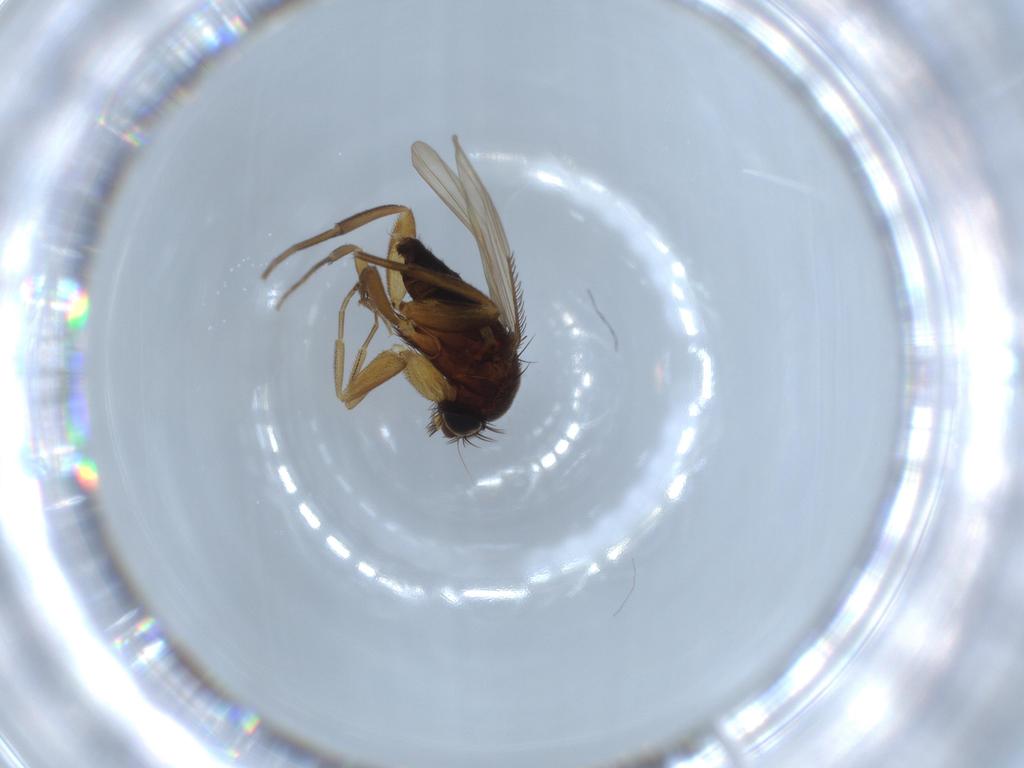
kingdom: Animalia
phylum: Arthropoda
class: Insecta
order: Diptera
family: Phoridae
